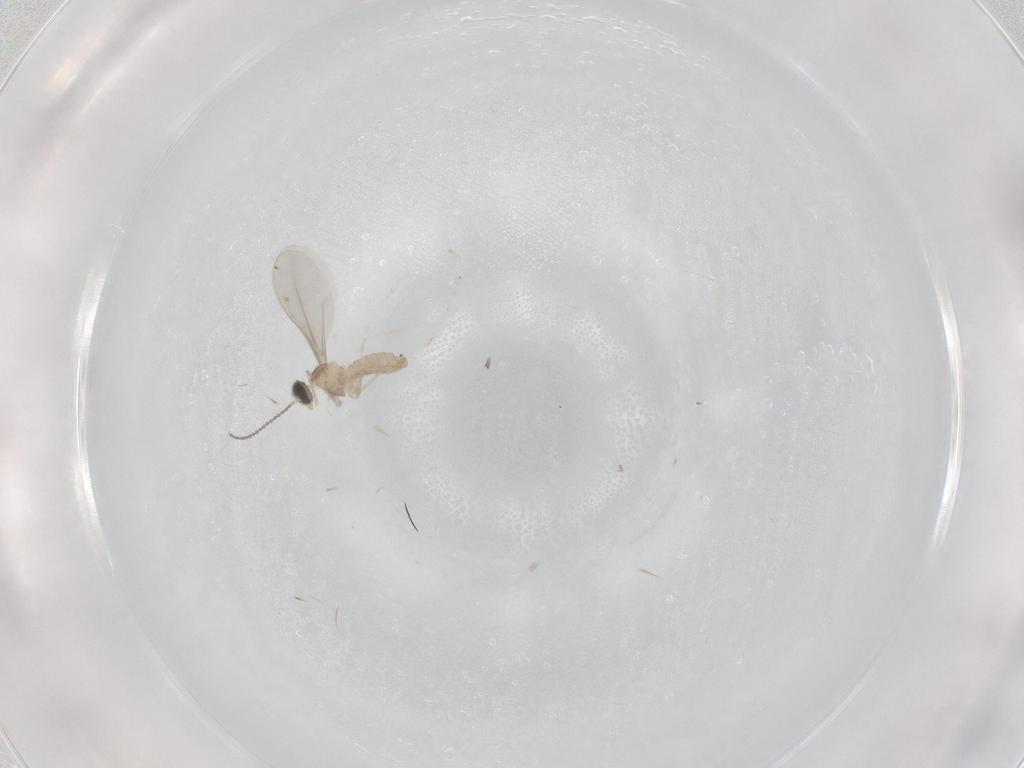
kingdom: Animalia
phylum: Arthropoda
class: Insecta
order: Diptera
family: Cecidomyiidae
